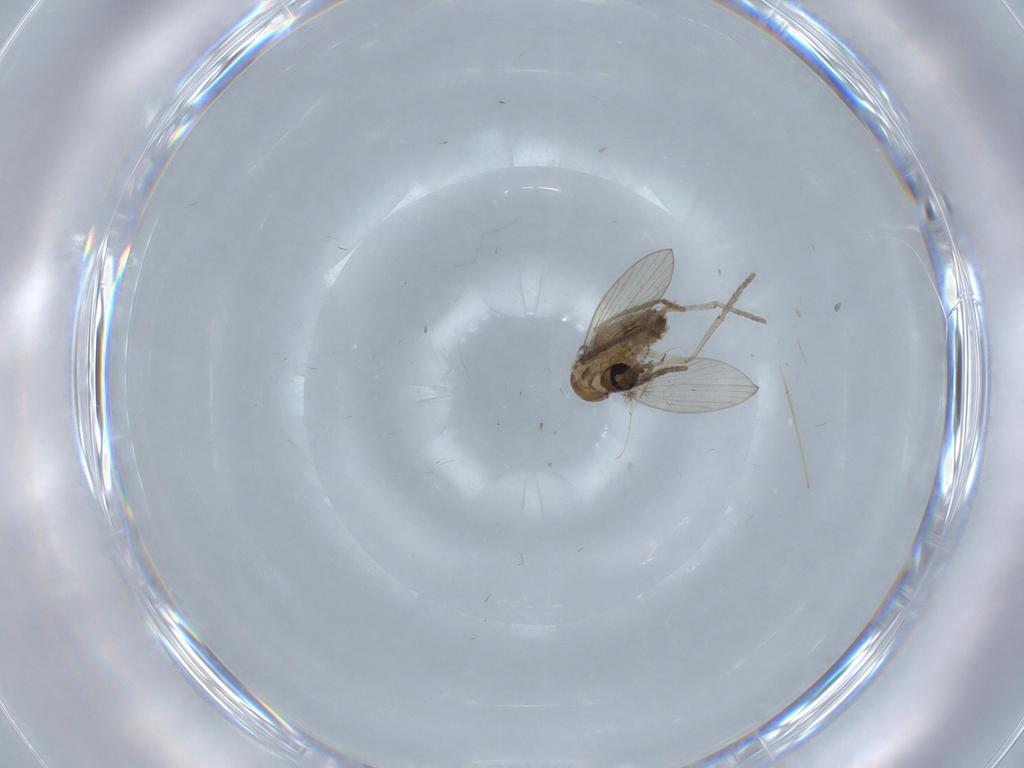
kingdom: Animalia
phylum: Arthropoda
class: Insecta
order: Diptera
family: Psychodidae
